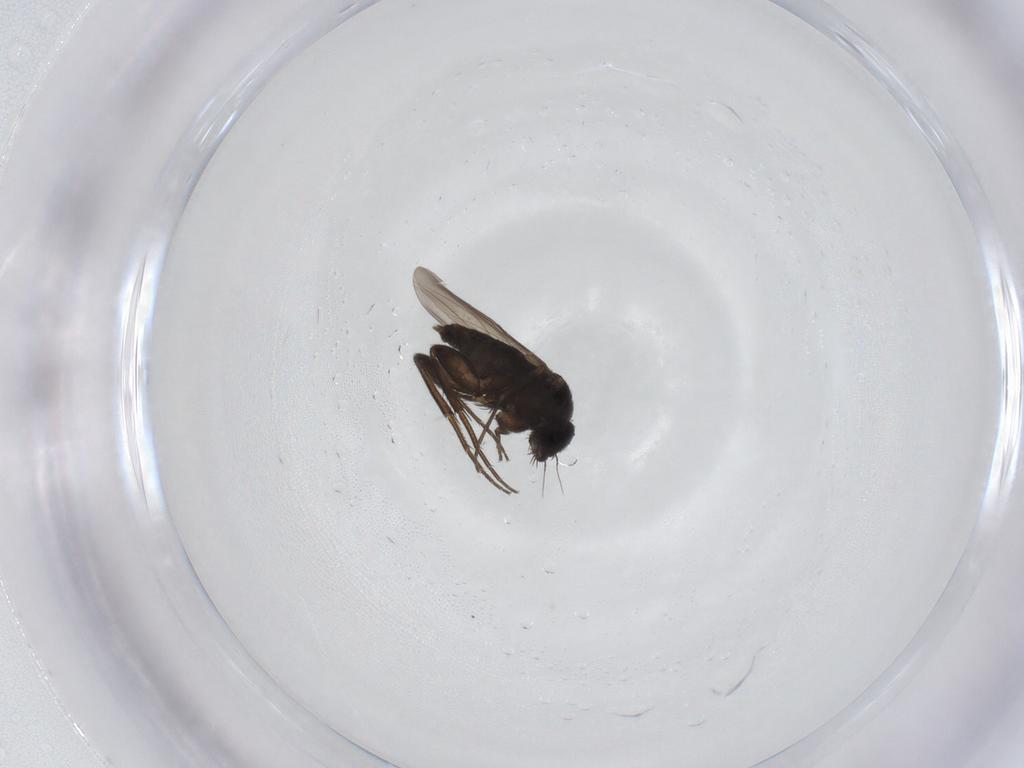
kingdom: Animalia
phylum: Arthropoda
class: Insecta
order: Diptera
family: Phoridae
